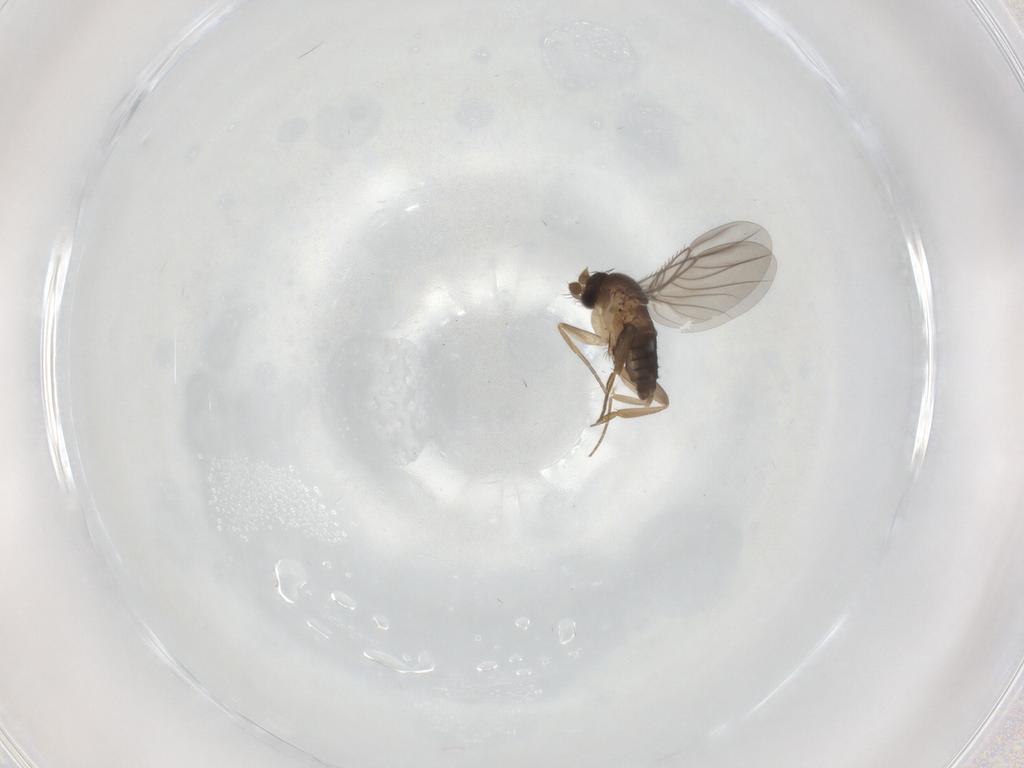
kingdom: Animalia
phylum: Arthropoda
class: Insecta
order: Diptera
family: Phoridae
